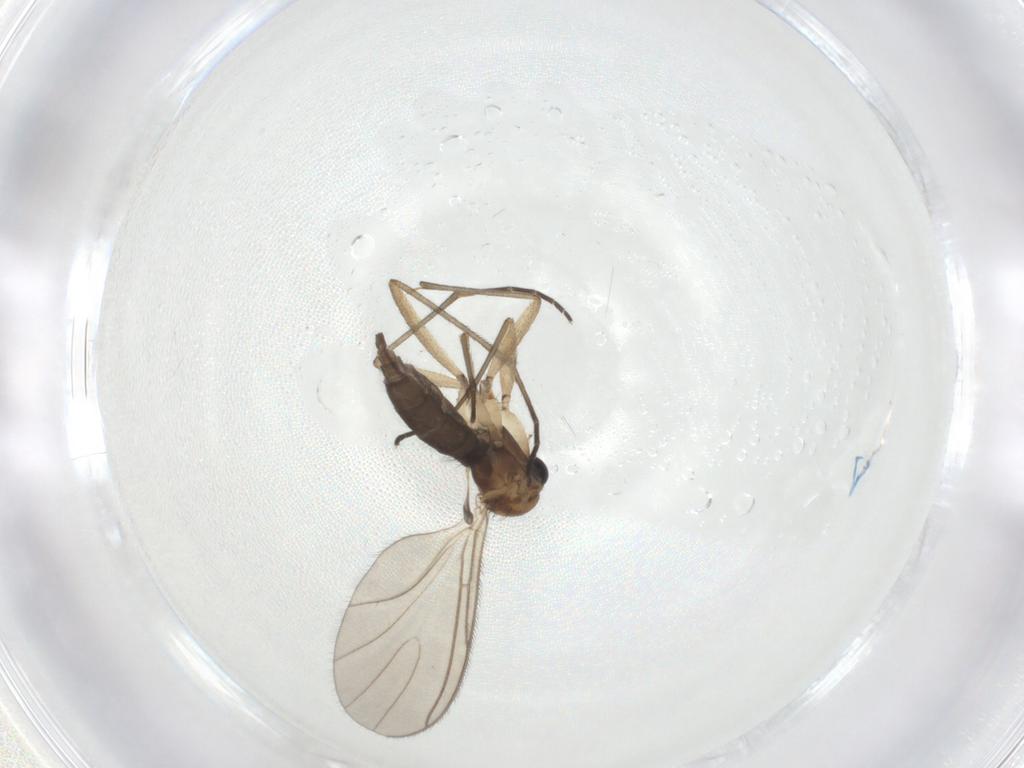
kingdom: Animalia
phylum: Arthropoda
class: Insecta
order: Diptera
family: Sciaridae
